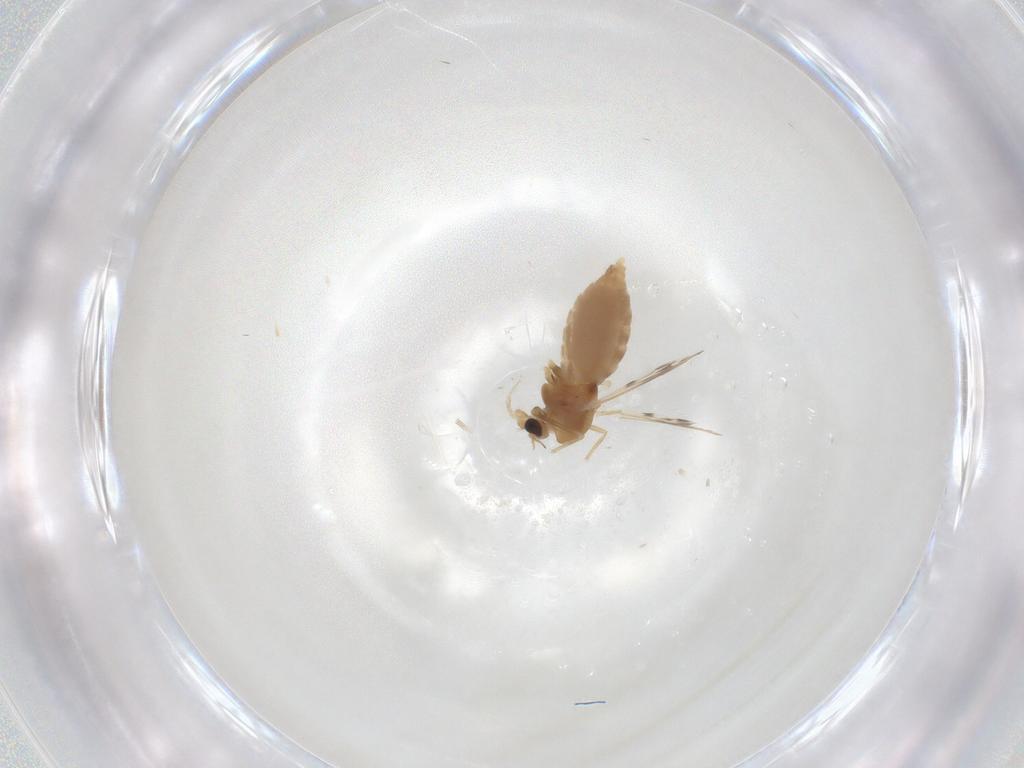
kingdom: Animalia
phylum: Arthropoda
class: Insecta
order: Diptera
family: Chironomidae
